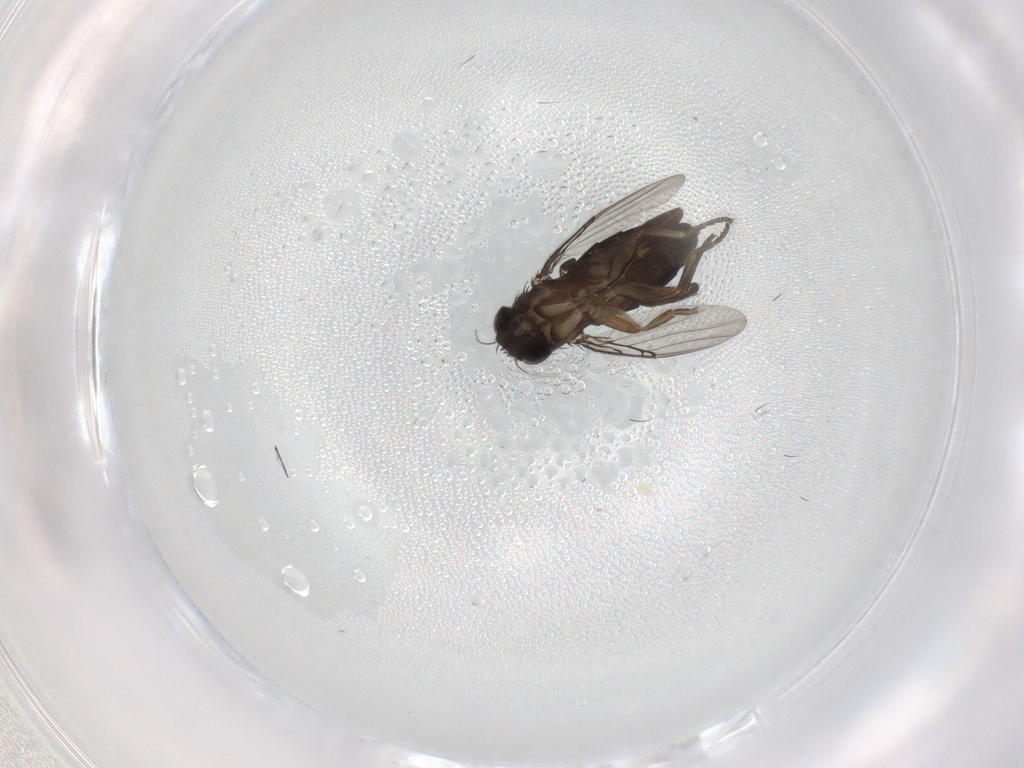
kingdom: Animalia
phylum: Arthropoda
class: Insecta
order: Diptera
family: Phoridae
